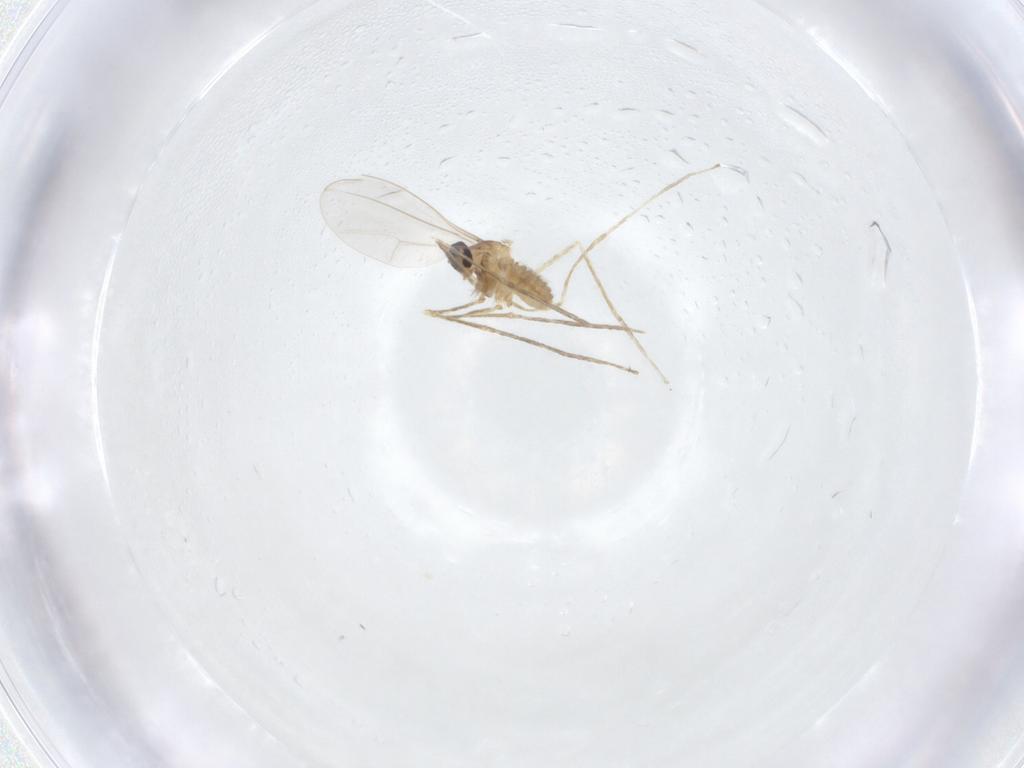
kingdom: Animalia
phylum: Arthropoda
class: Insecta
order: Diptera
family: Cecidomyiidae
